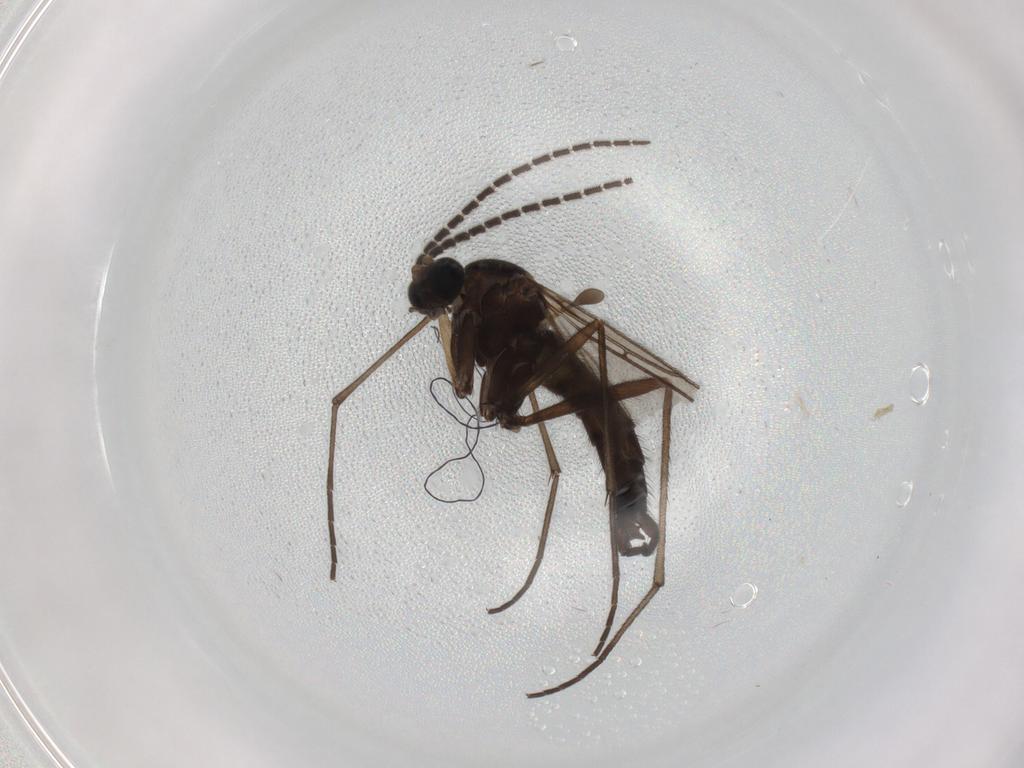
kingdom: Animalia
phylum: Arthropoda
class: Insecta
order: Diptera
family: Sciaridae
